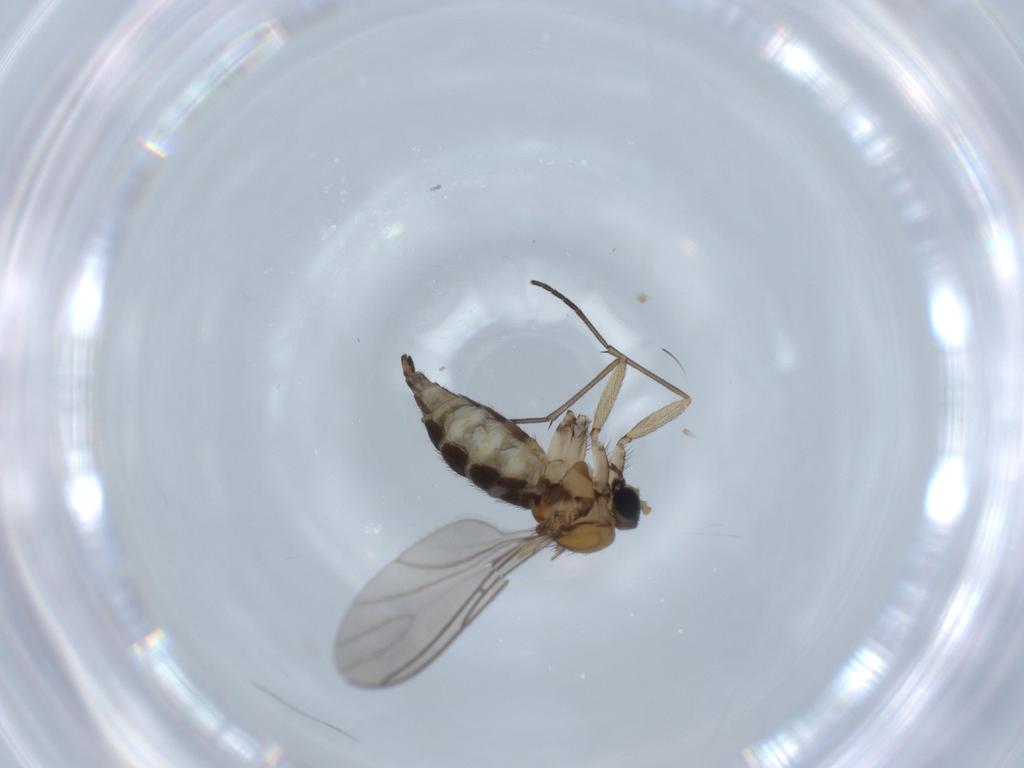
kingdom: Animalia
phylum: Arthropoda
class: Insecta
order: Diptera
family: Sciaridae
